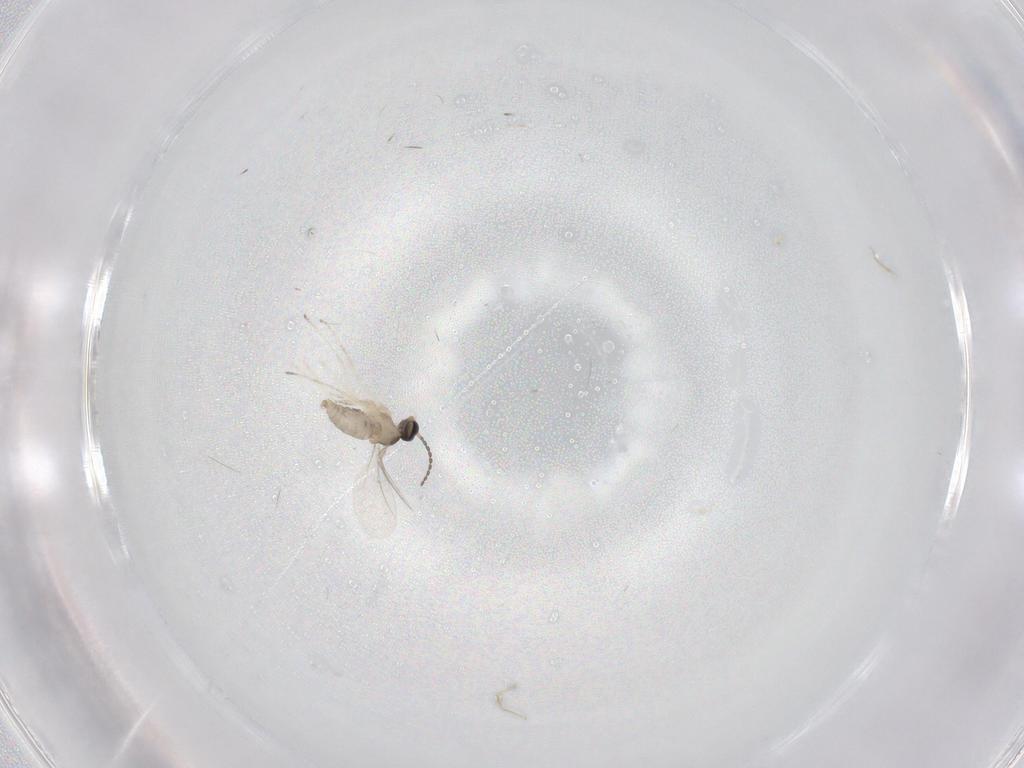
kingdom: Animalia
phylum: Arthropoda
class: Insecta
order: Diptera
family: Cecidomyiidae
